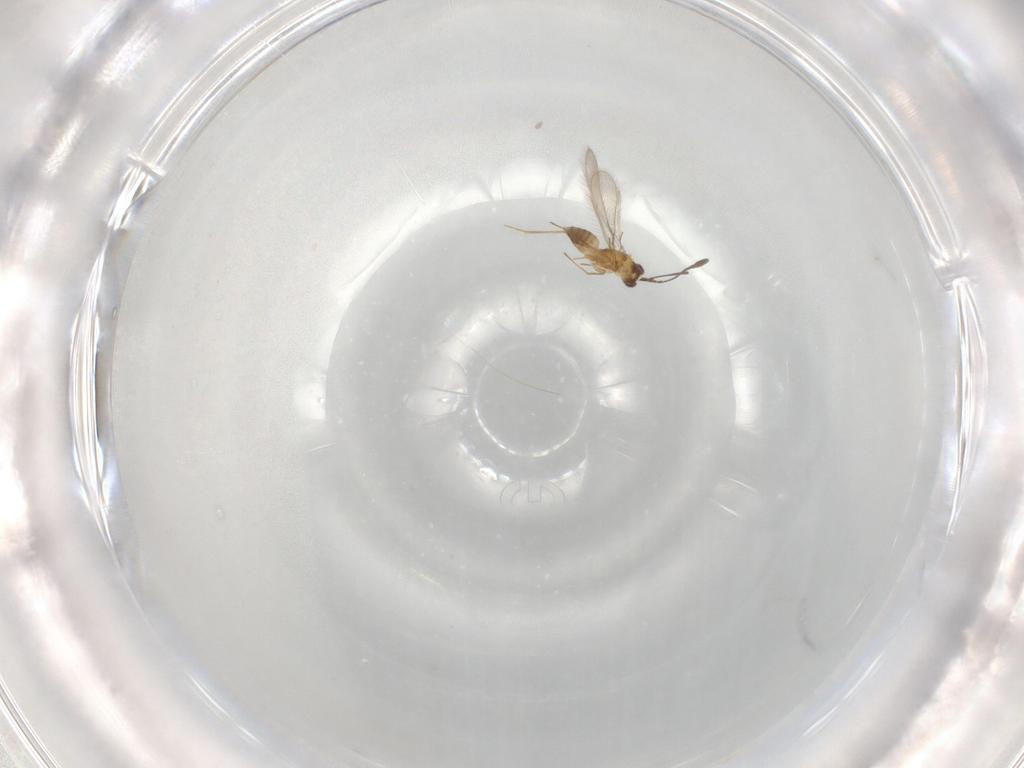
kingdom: Animalia
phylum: Arthropoda
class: Insecta
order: Hymenoptera
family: Mymaridae
